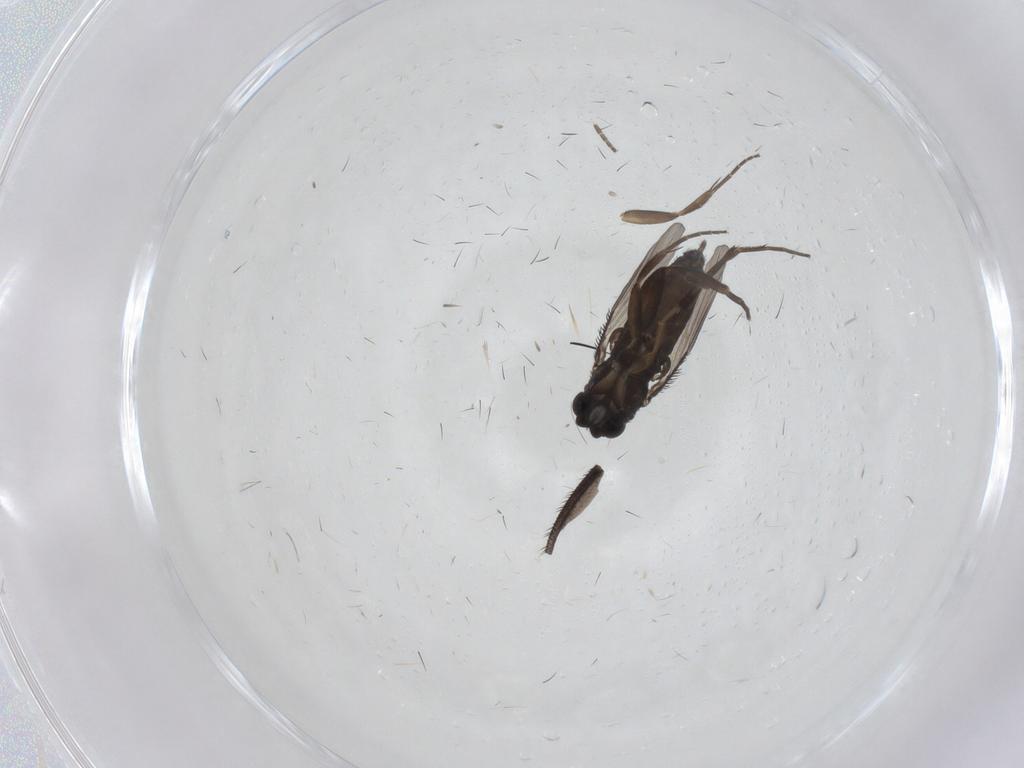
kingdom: Animalia
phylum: Arthropoda
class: Insecta
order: Diptera
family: Phoridae
